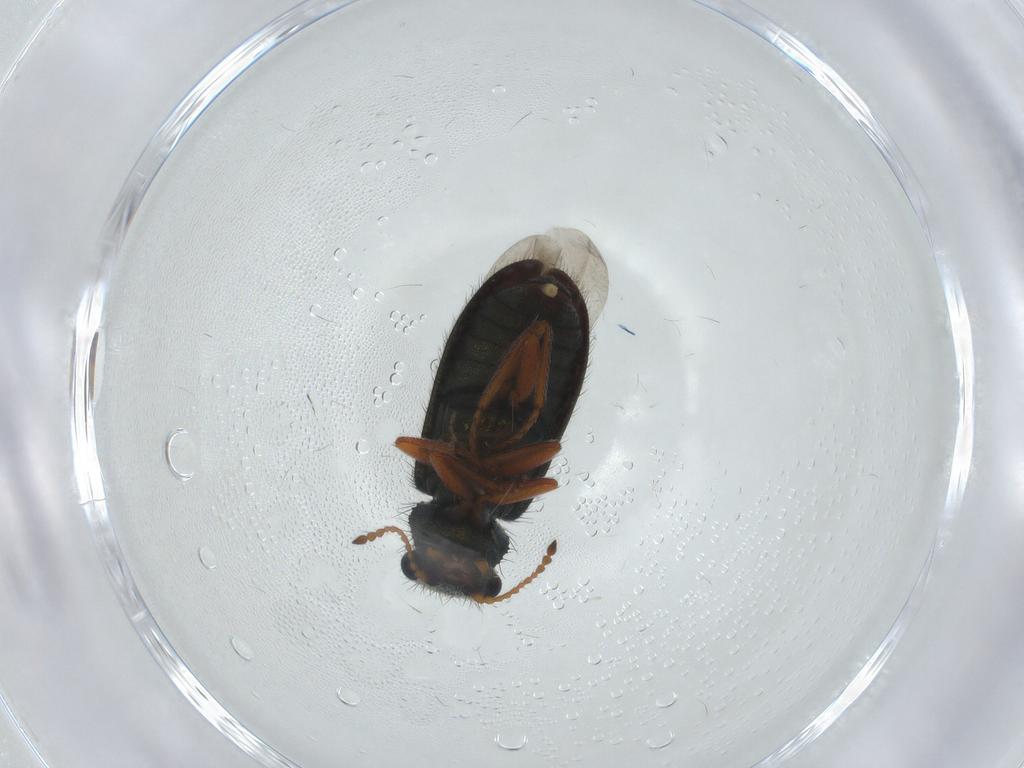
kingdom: Animalia
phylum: Arthropoda
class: Insecta
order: Coleoptera
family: Melyridae
